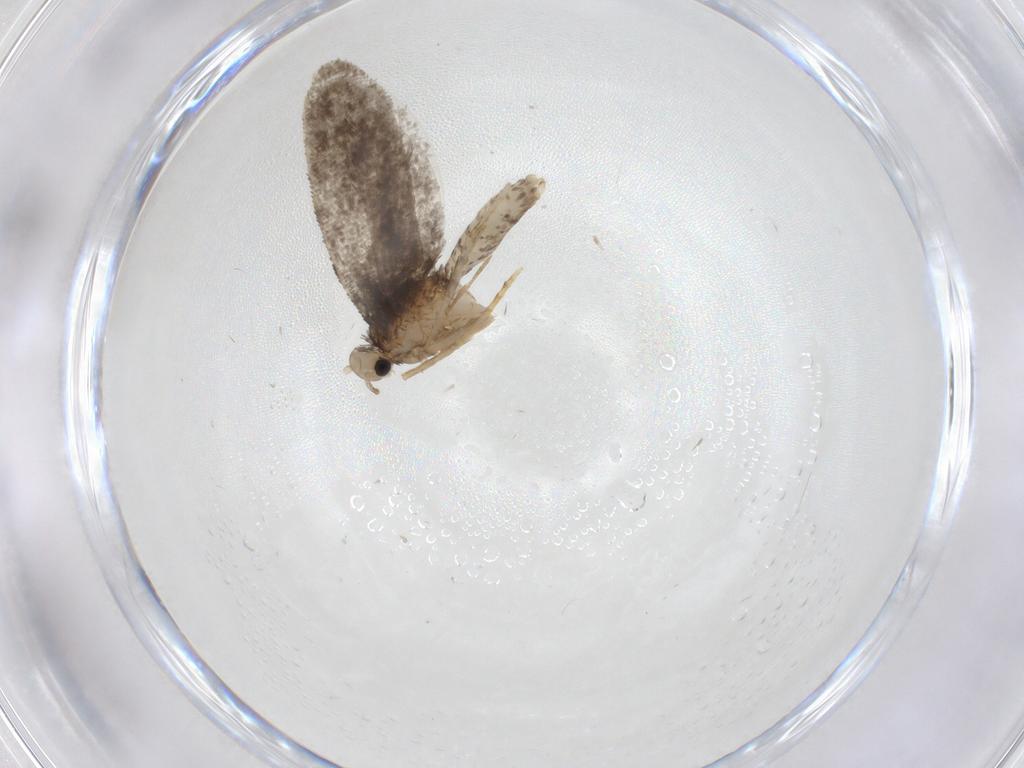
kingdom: Animalia
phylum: Arthropoda
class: Insecta
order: Lepidoptera
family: Psychidae
